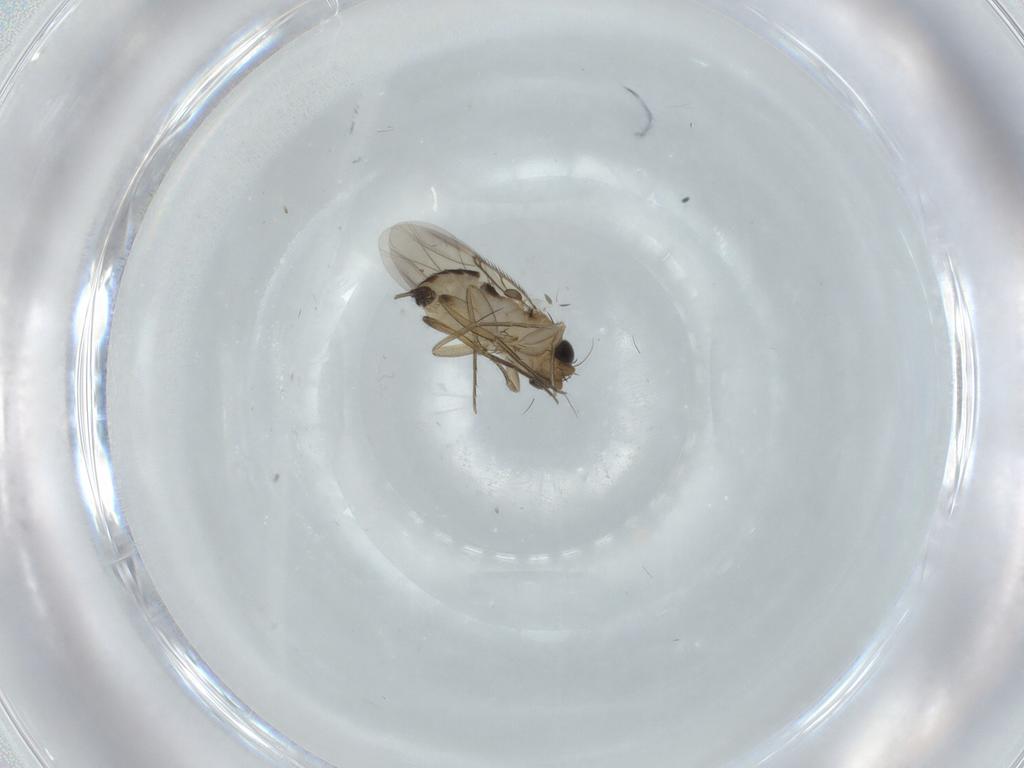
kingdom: Animalia
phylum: Arthropoda
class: Insecta
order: Diptera
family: Phoridae
